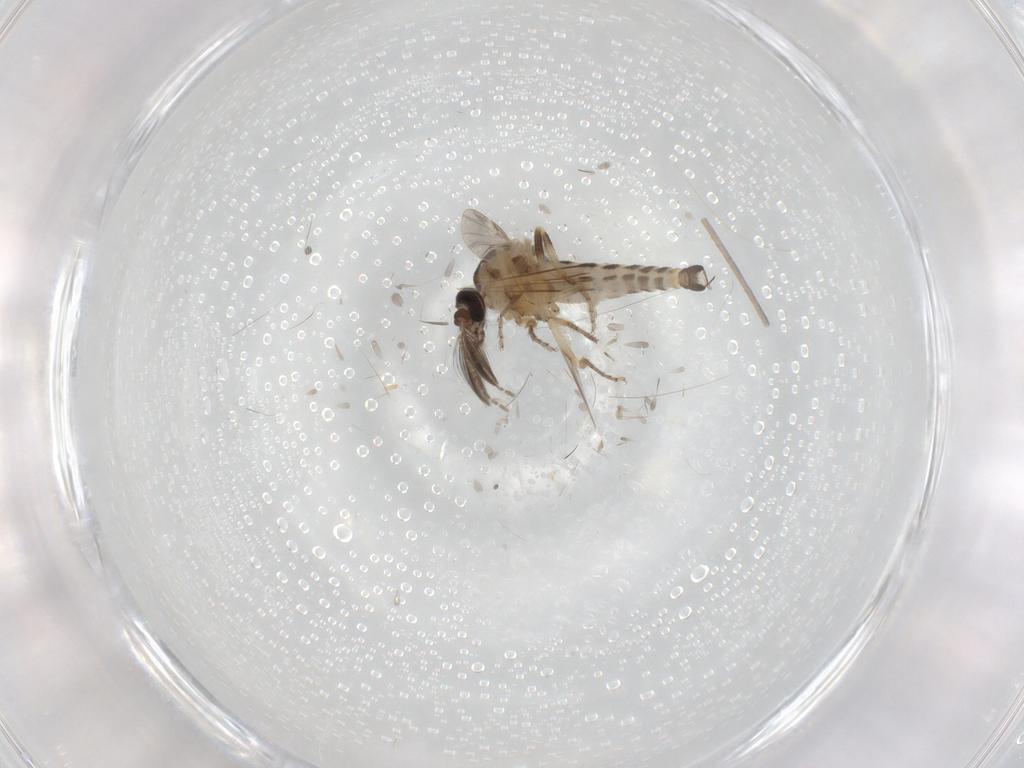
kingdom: Animalia
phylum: Arthropoda
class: Insecta
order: Diptera
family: Ceratopogonidae
